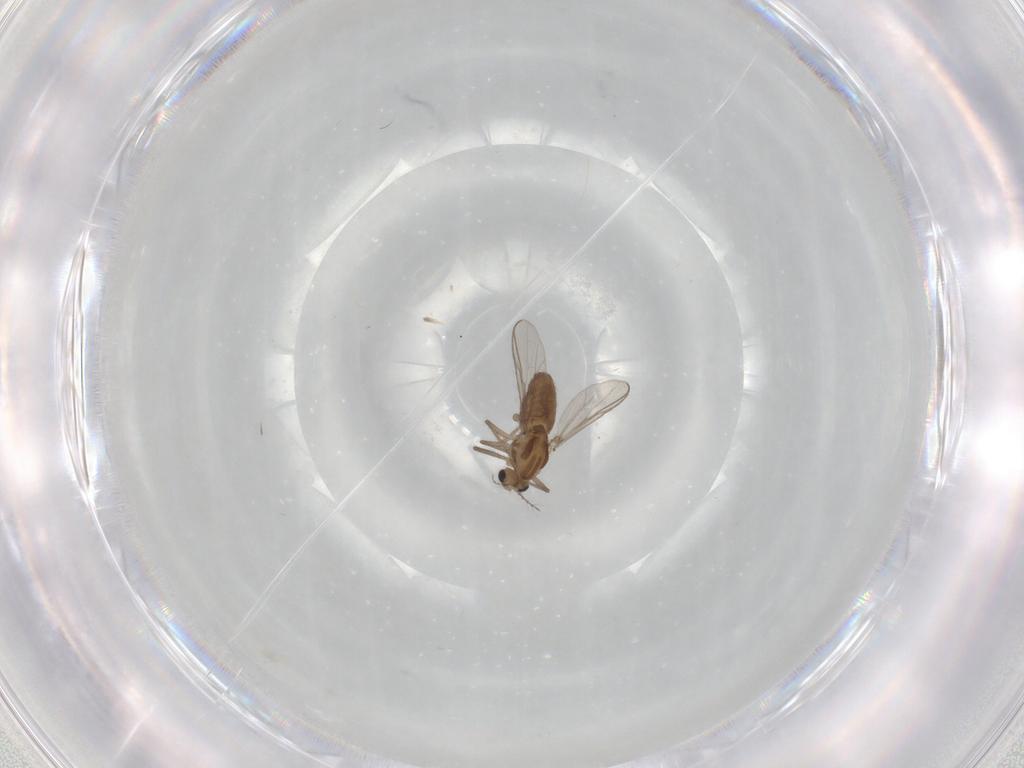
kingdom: Animalia
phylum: Arthropoda
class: Insecta
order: Diptera
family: Chironomidae
